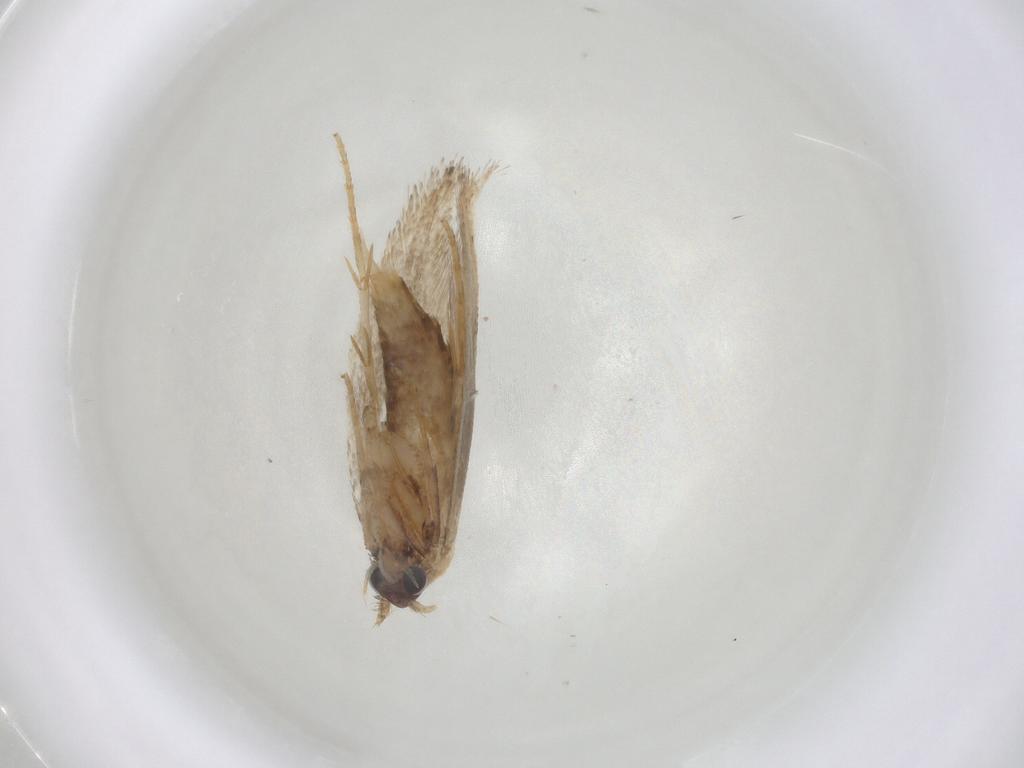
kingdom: Animalia
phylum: Arthropoda
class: Insecta
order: Lepidoptera
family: Nepticulidae
